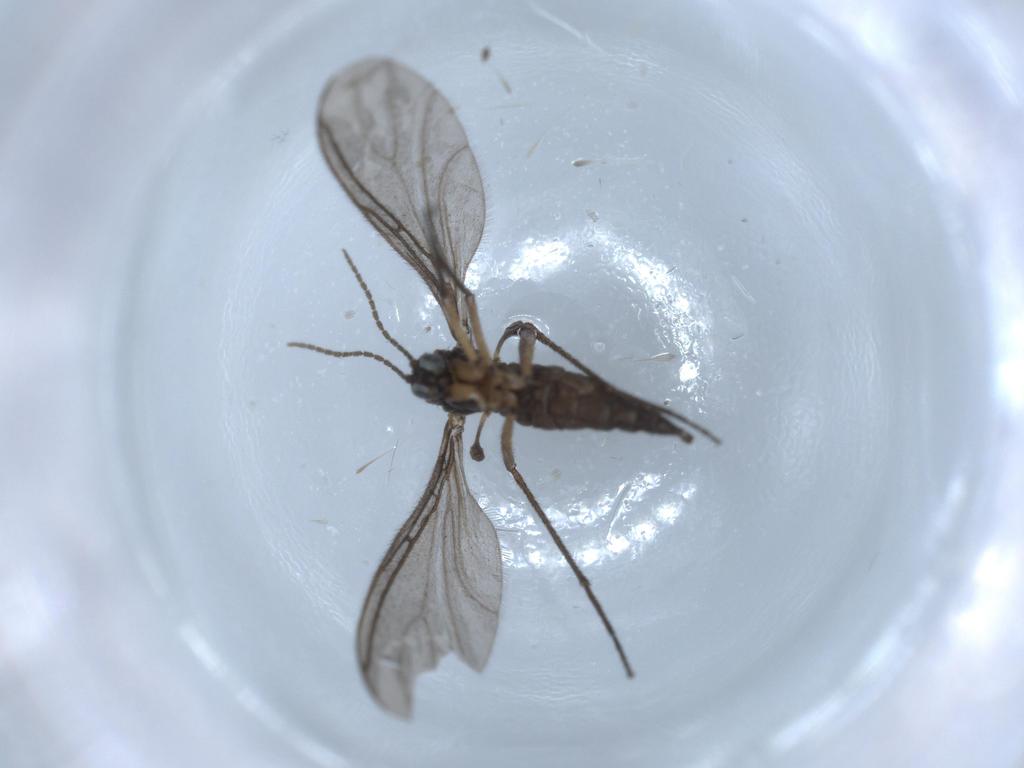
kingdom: Animalia
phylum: Arthropoda
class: Insecta
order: Diptera
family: Sciaridae
